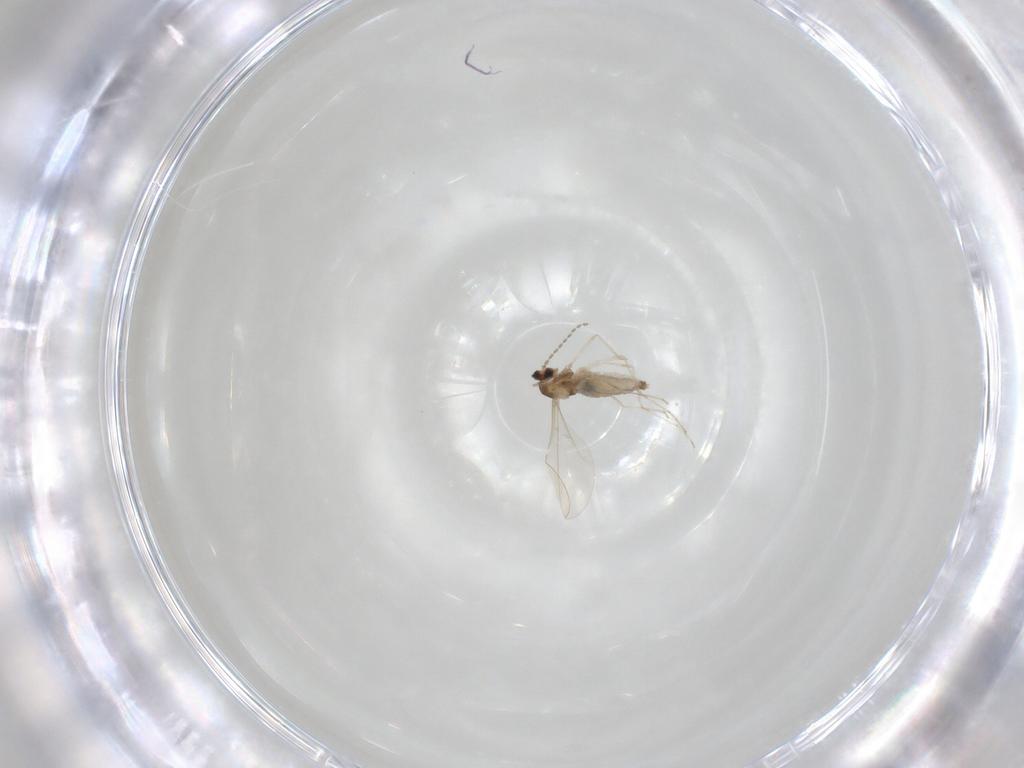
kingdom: Animalia
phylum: Arthropoda
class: Insecta
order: Diptera
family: Cecidomyiidae
